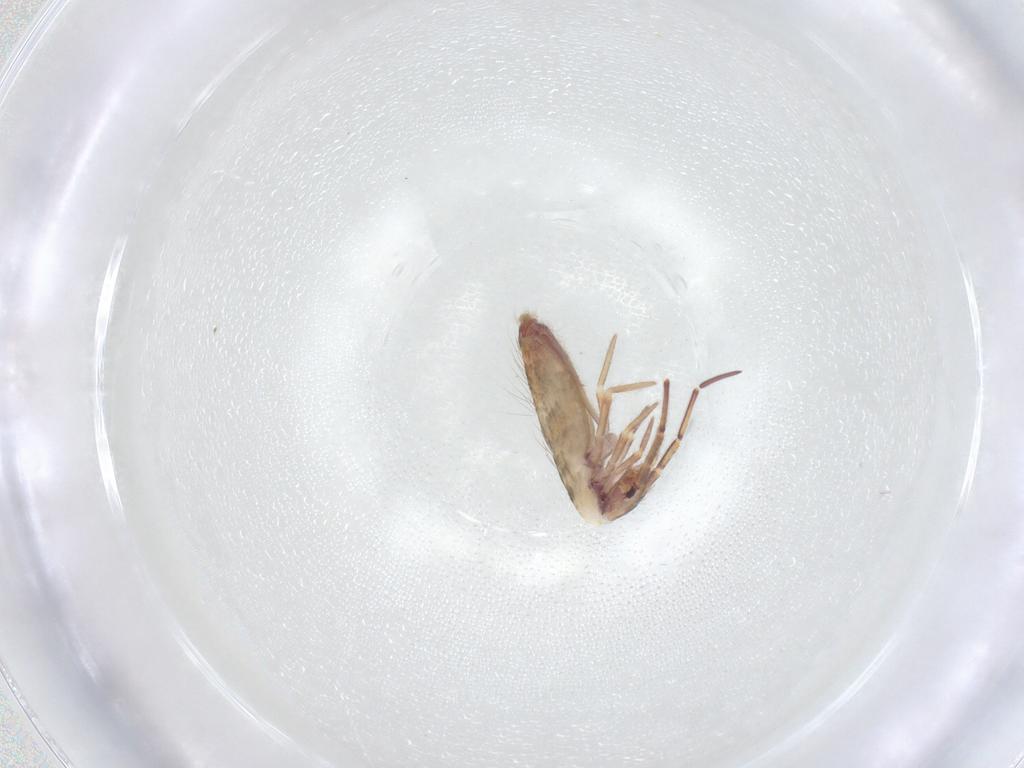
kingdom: Animalia
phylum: Arthropoda
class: Collembola
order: Entomobryomorpha
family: Entomobryidae
